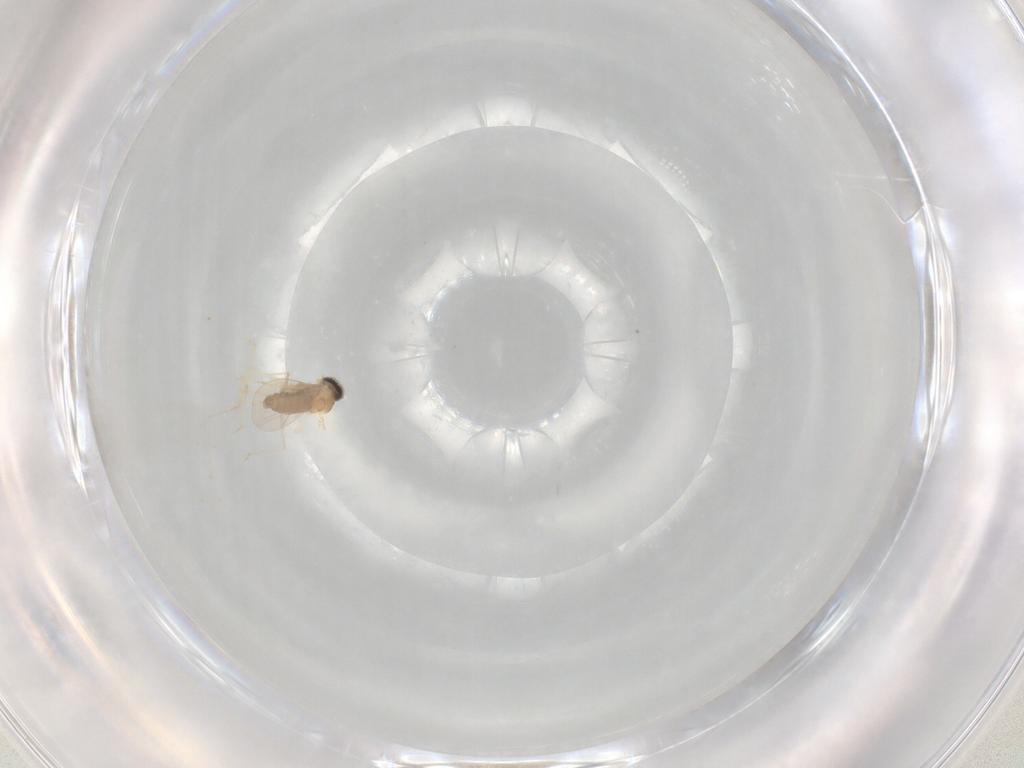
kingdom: Animalia
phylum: Arthropoda
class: Insecta
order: Diptera
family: Cecidomyiidae
